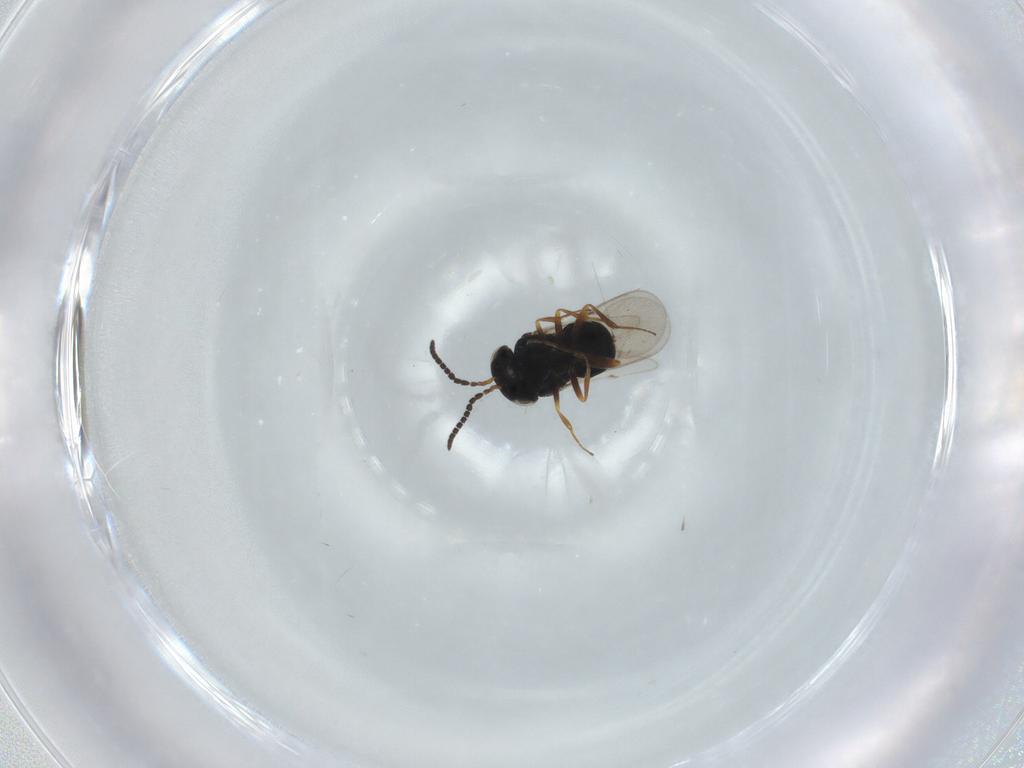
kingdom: Animalia
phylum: Arthropoda
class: Insecta
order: Hymenoptera
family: Scelionidae
